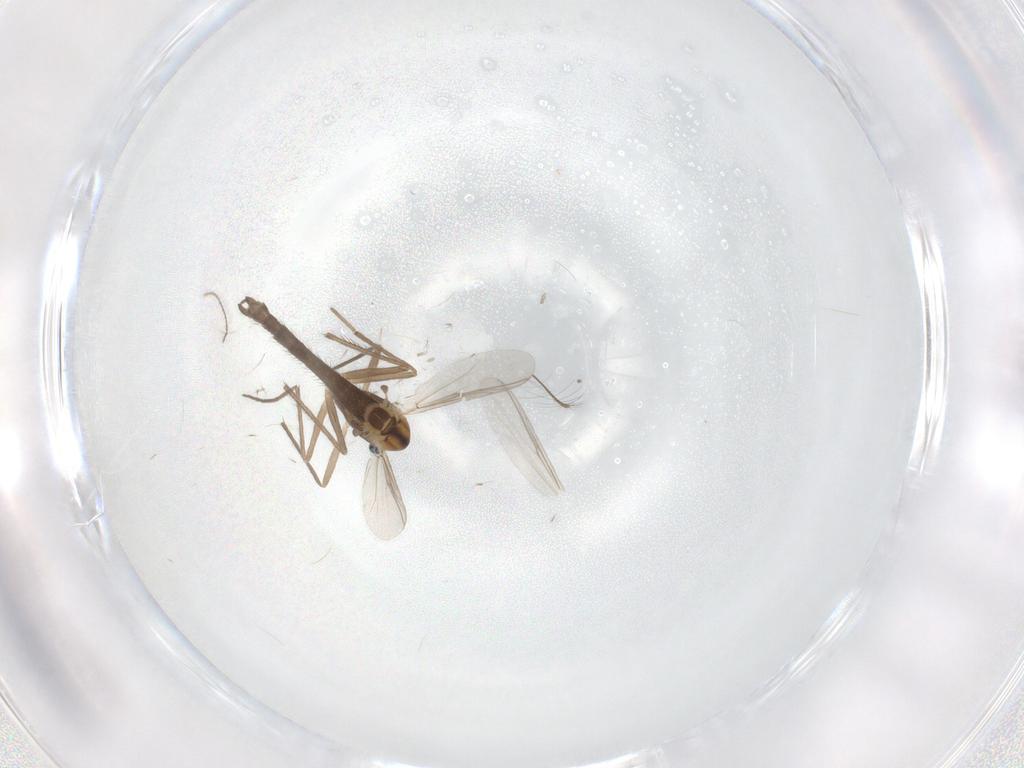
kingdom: Animalia
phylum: Arthropoda
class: Insecta
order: Diptera
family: Chironomidae
